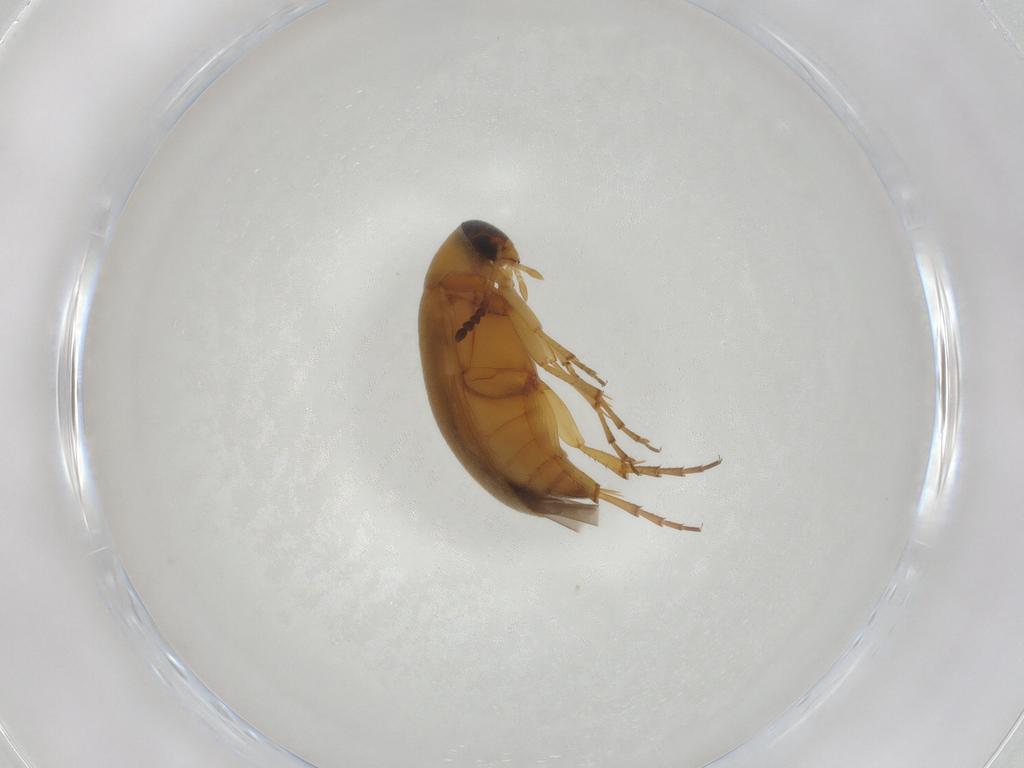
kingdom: Animalia
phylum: Arthropoda
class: Insecta
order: Coleoptera
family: Scraptiidae
